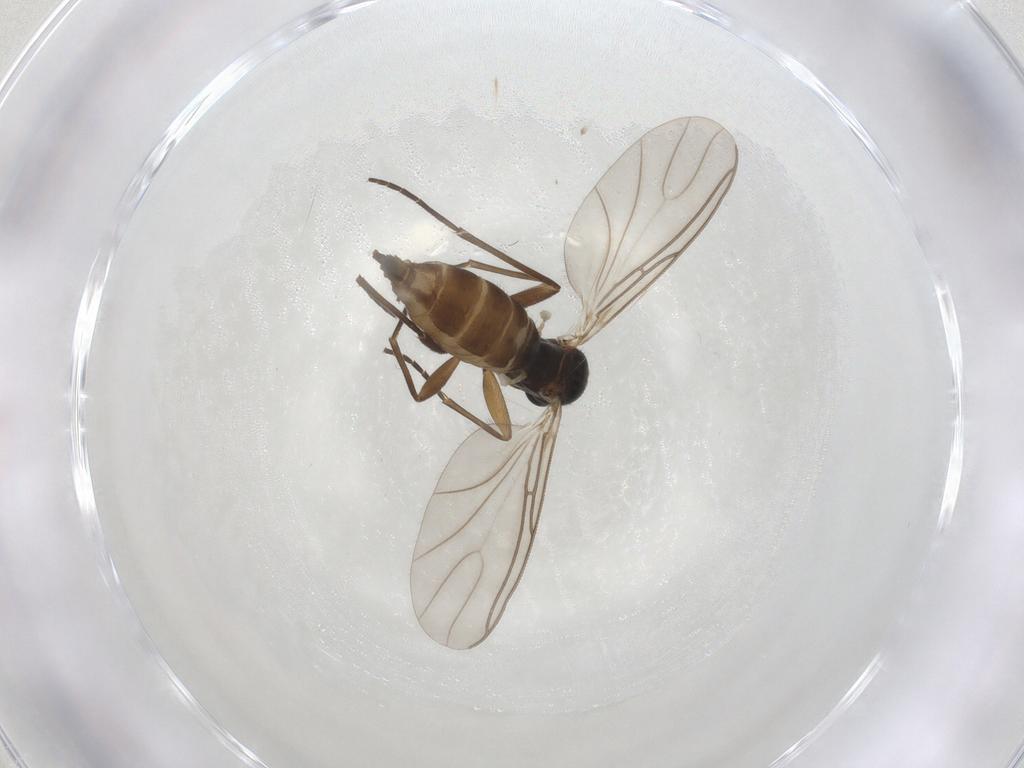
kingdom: Animalia
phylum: Arthropoda
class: Insecta
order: Diptera
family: Sciaridae
